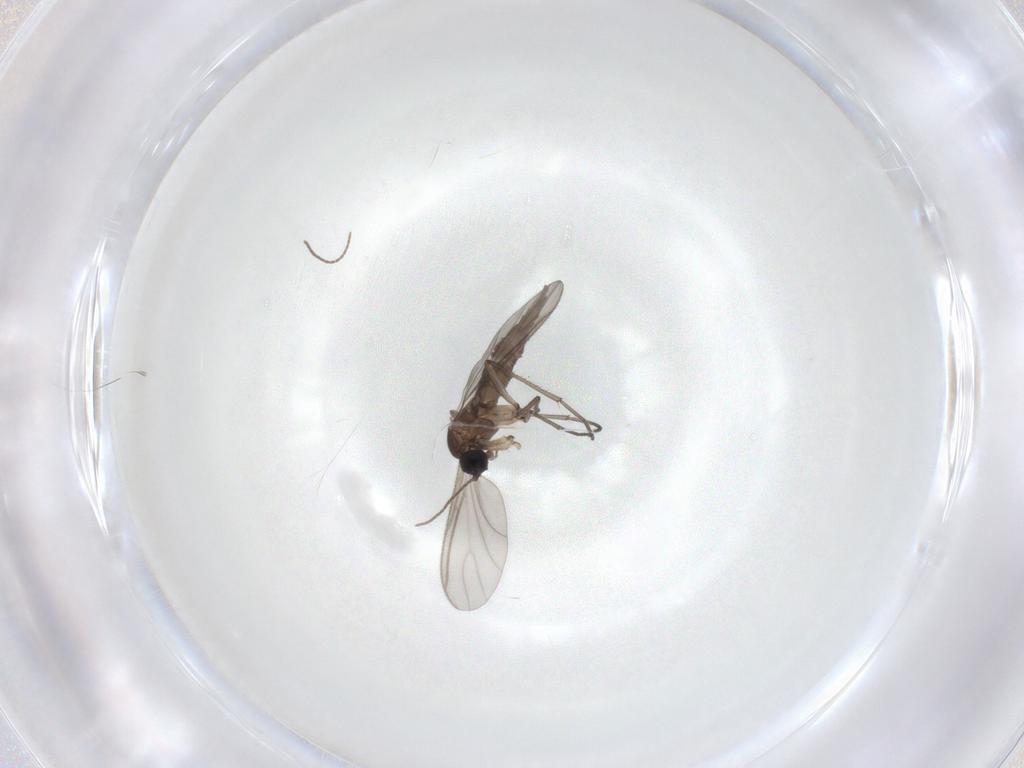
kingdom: Animalia
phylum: Arthropoda
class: Insecta
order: Diptera
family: Sciaridae
